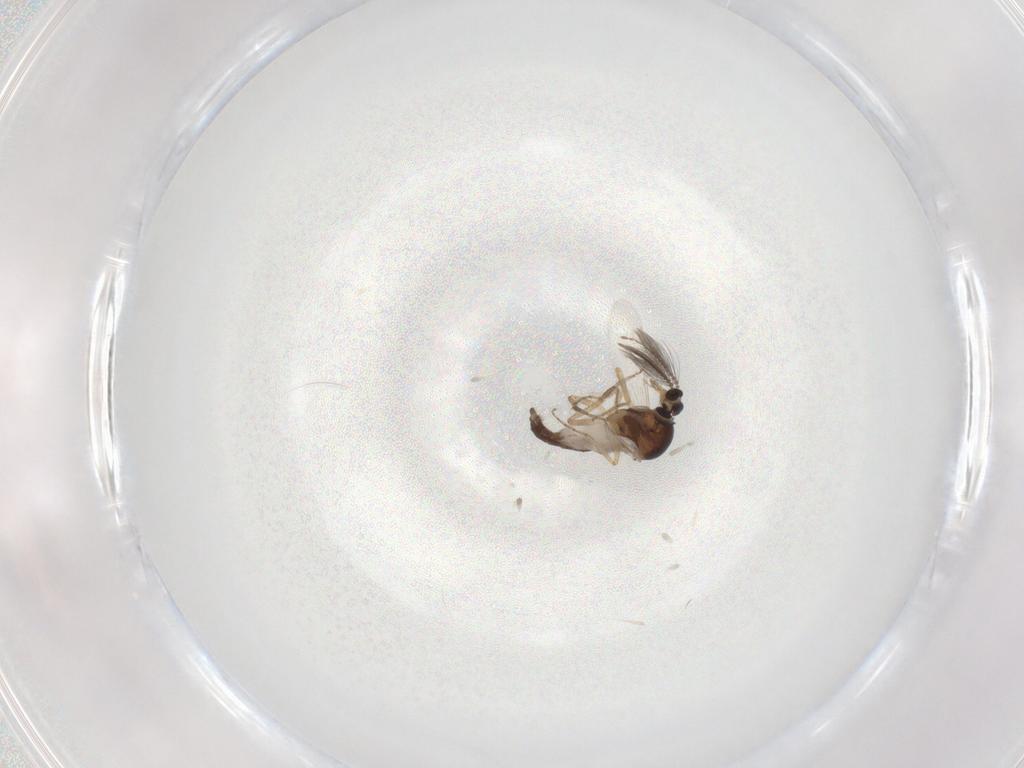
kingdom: Animalia
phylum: Arthropoda
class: Insecta
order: Diptera
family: Ceratopogonidae
